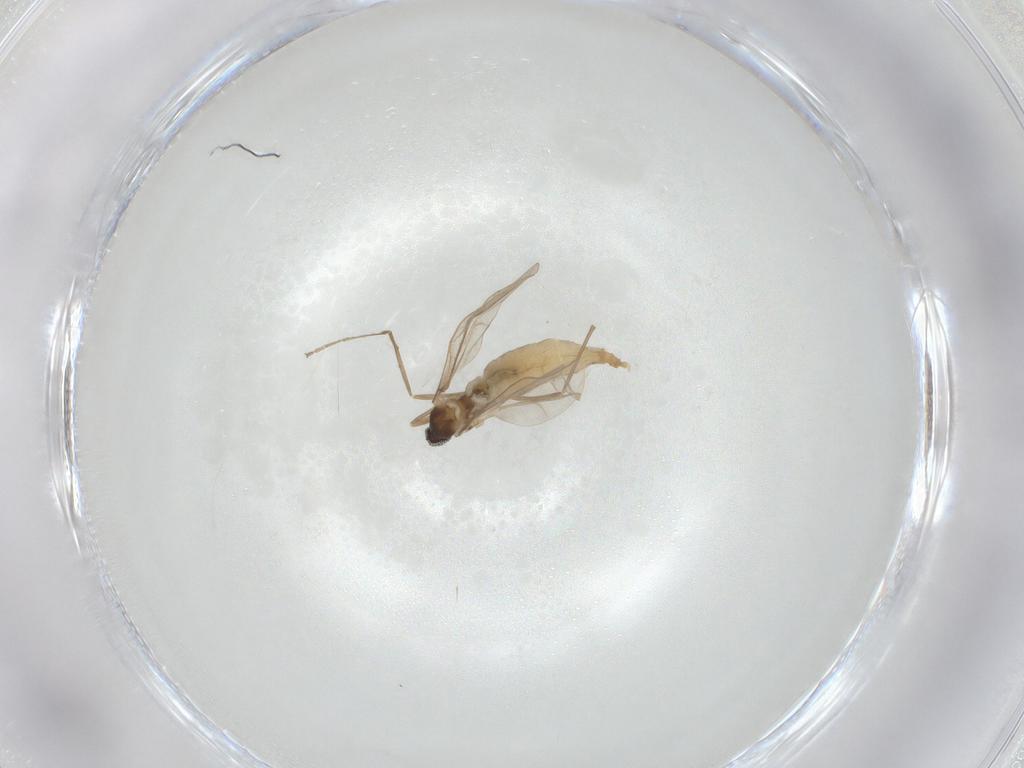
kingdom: Animalia
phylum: Arthropoda
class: Insecta
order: Diptera
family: Cecidomyiidae
